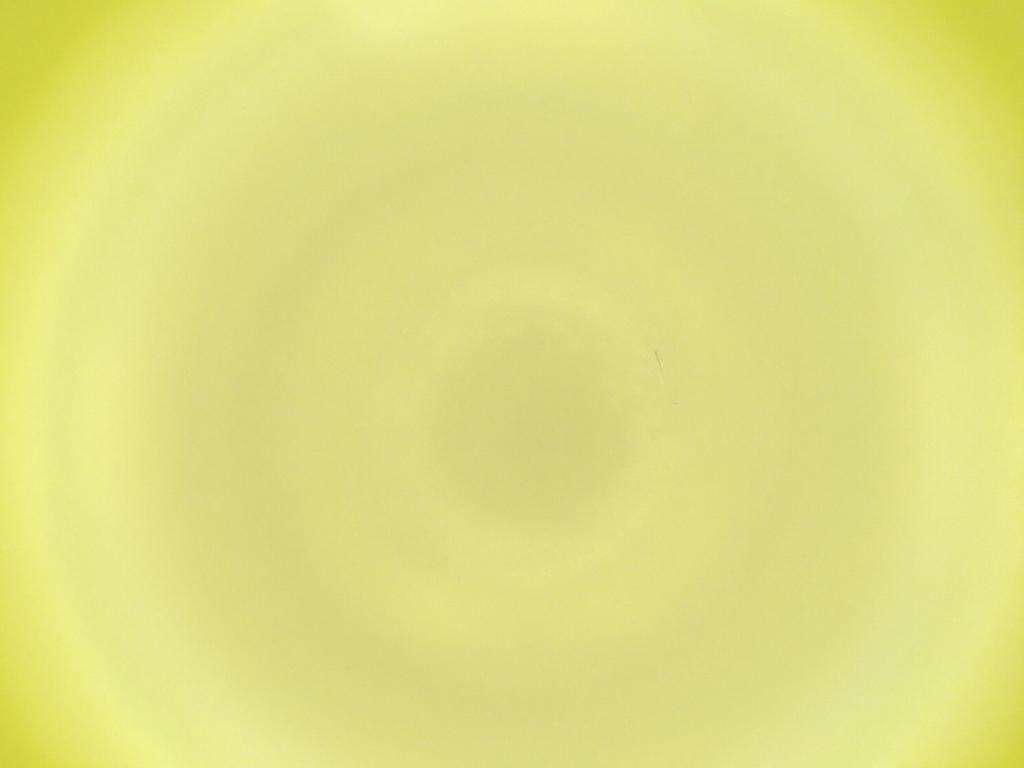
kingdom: Animalia
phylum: Arthropoda
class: Insecta
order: Diptera
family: Cecidomyiidae
